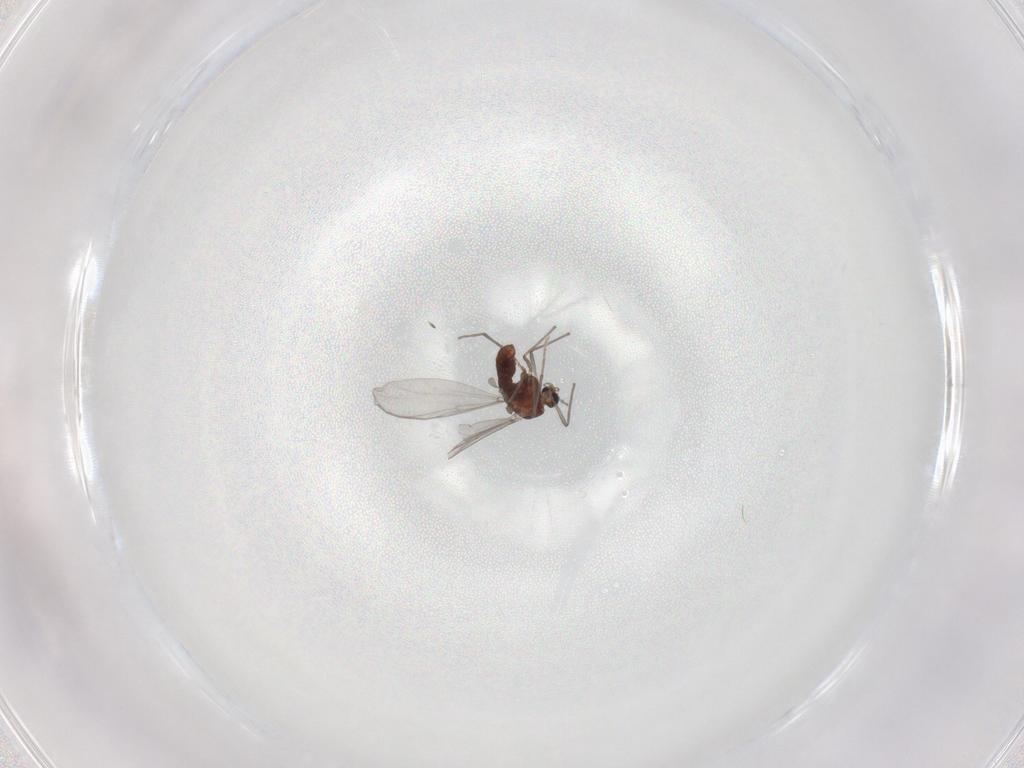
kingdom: Animalia
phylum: Arthropoda
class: Insecta
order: Diptera
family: Chironomidae
